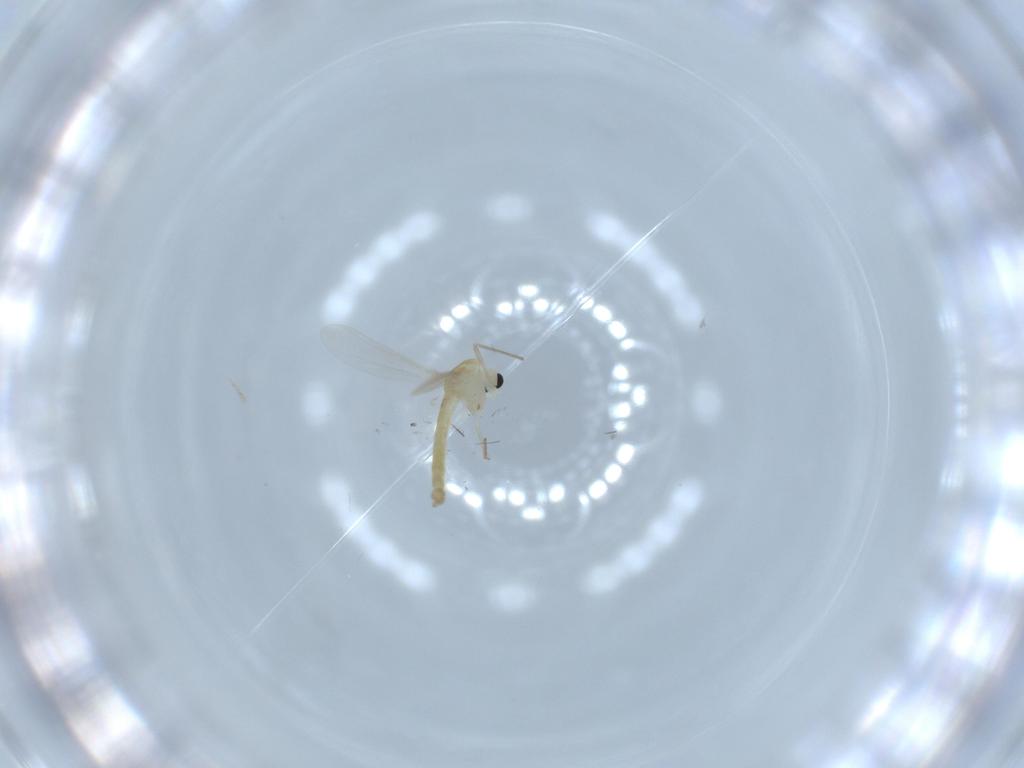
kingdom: Animalia
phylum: Arthropoda
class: Insecta
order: Diptera
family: Chironomidae
